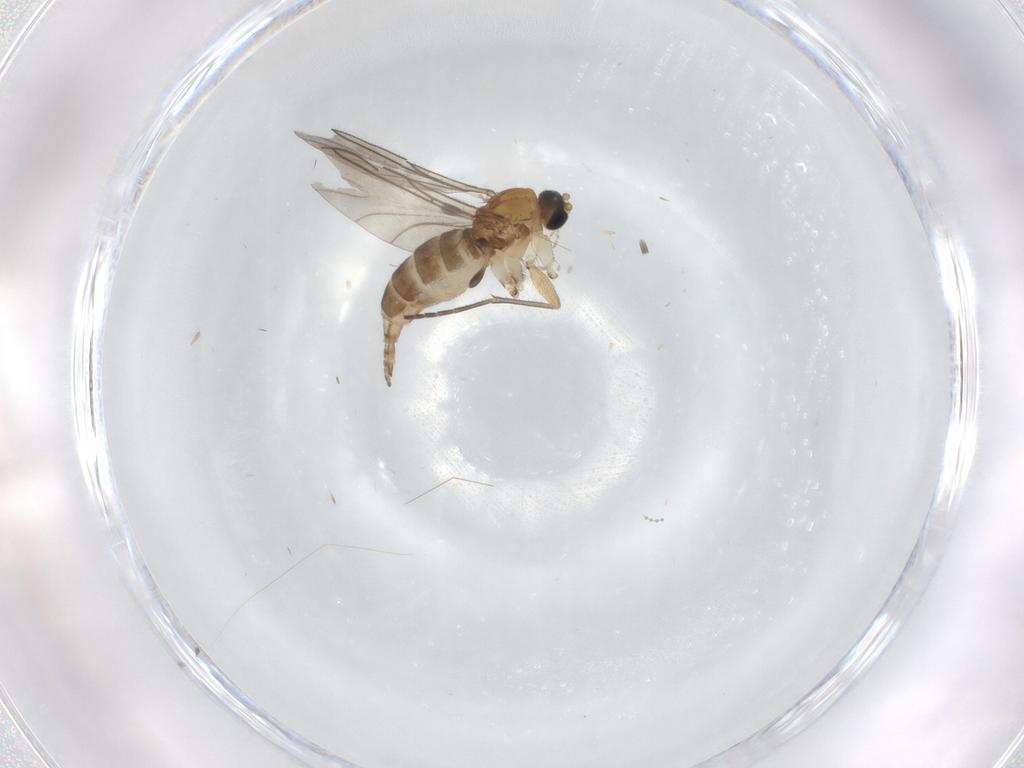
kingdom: Animalia
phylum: Arthropoda
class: Insecta
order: Diptera
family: Sciaridae
